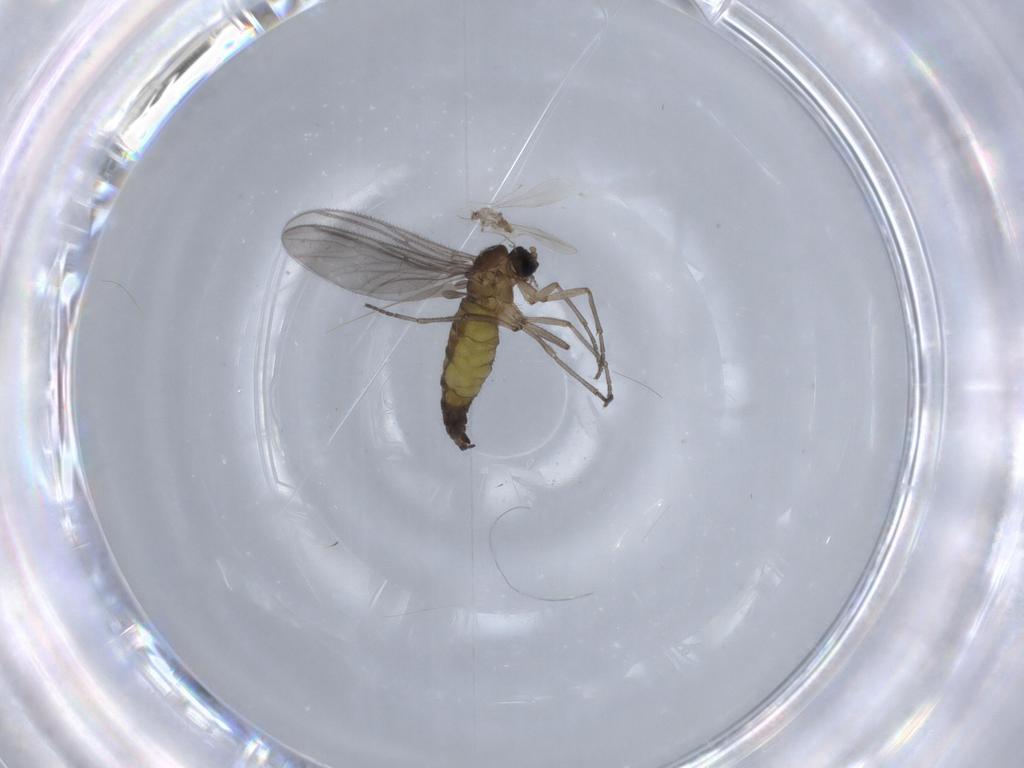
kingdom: Animalia
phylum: Arthropoda
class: Insecta
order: Diptera
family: Sciaridae
